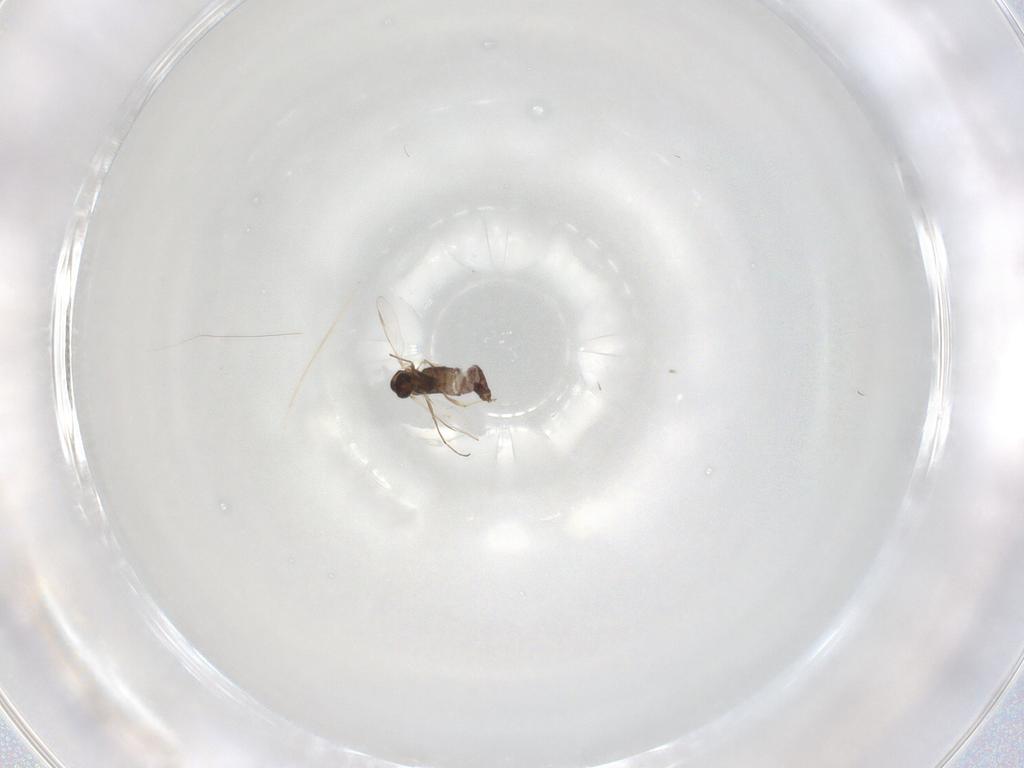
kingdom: Animalia
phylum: Arthropoda
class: Insecta
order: Diptera
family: Chironomidae
